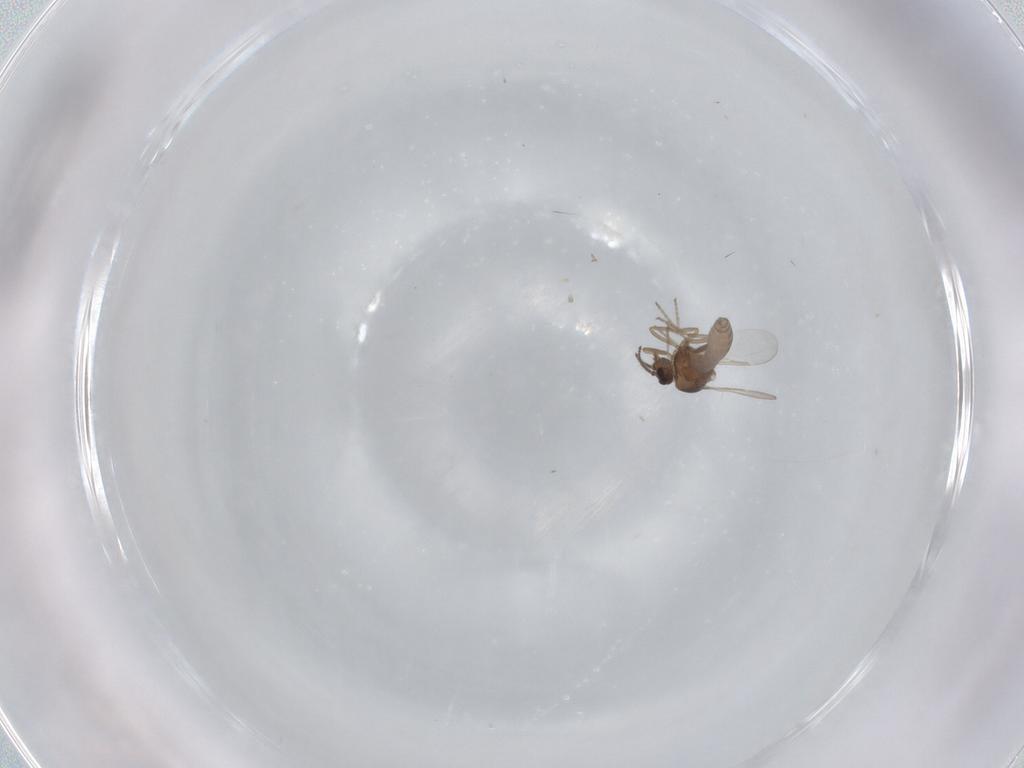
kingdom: Animalia
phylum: Arthropoda
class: Insecta
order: Diptera
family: Ceratopogonidae
